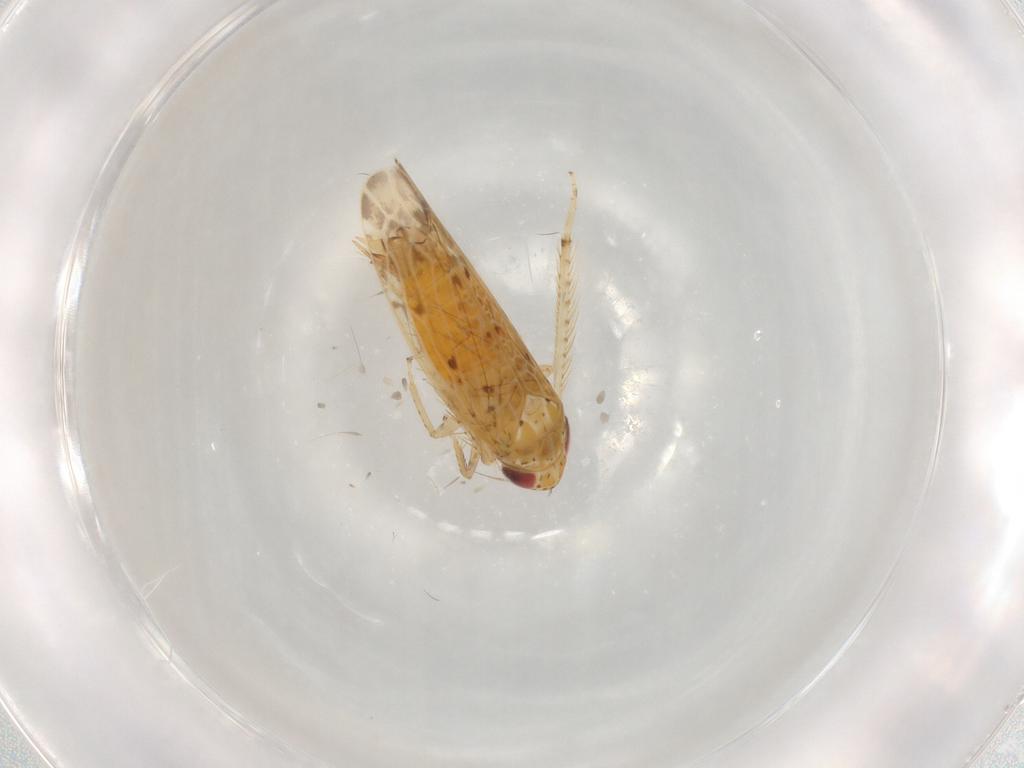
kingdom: Animalia
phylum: Arthropoda
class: Insecta
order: Hemiptera
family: Cicadellidae
